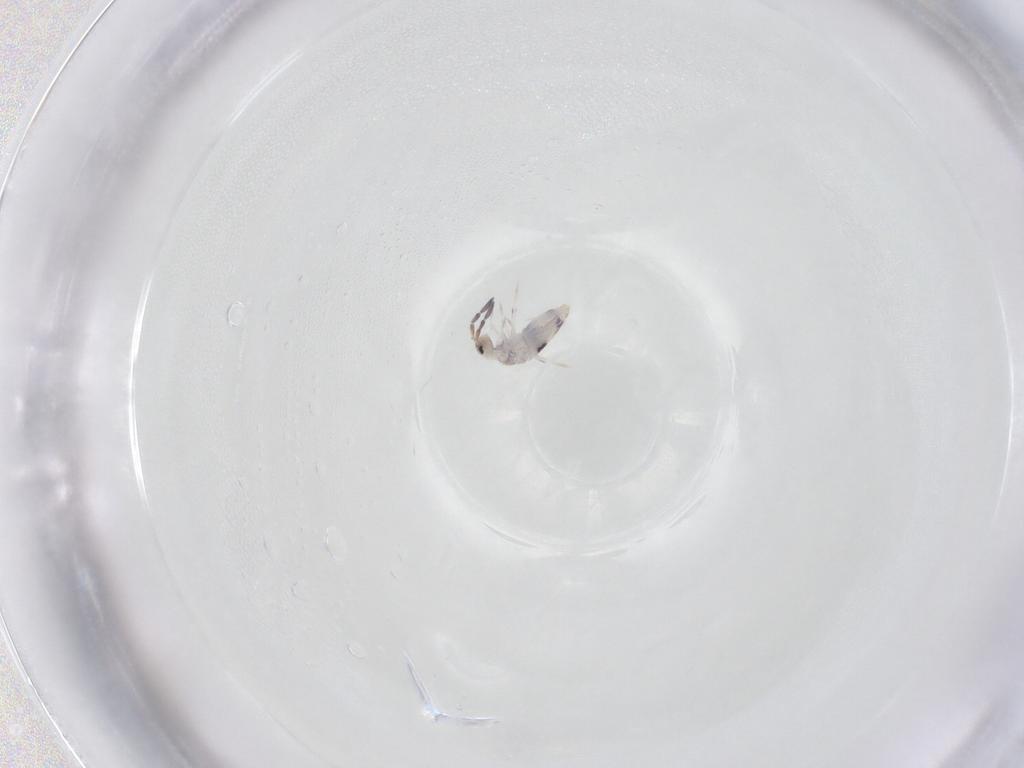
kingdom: Animalia
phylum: Arthropoda
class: Collembola
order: Entomobryomorpha
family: Entomobryidae
